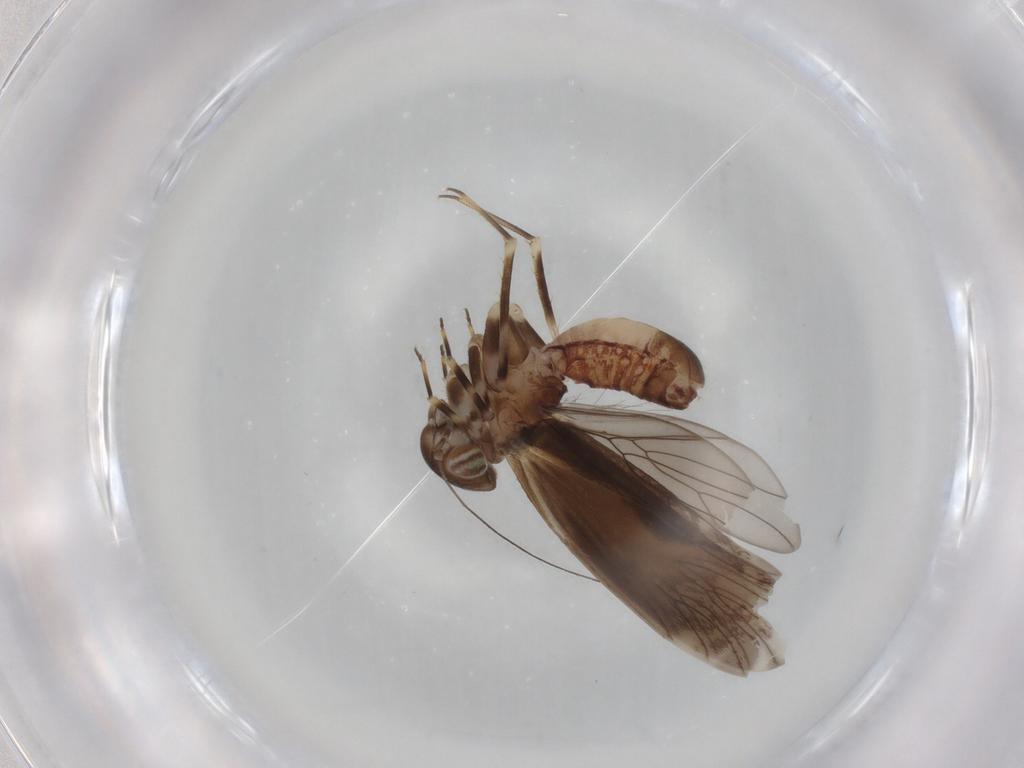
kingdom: Animalia
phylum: Arthropoda
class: Insecta
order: Psocodea
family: Amphientomidae
